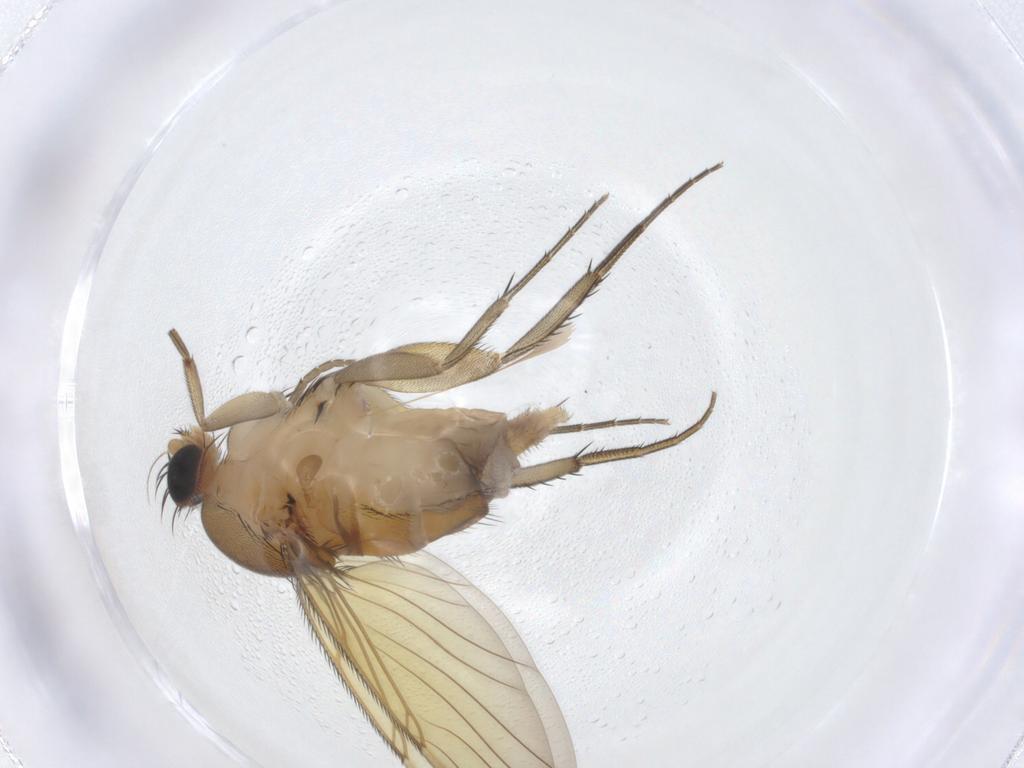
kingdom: Animalia
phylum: Arthropoda
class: Insecta
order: Diptera
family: Phoridae
